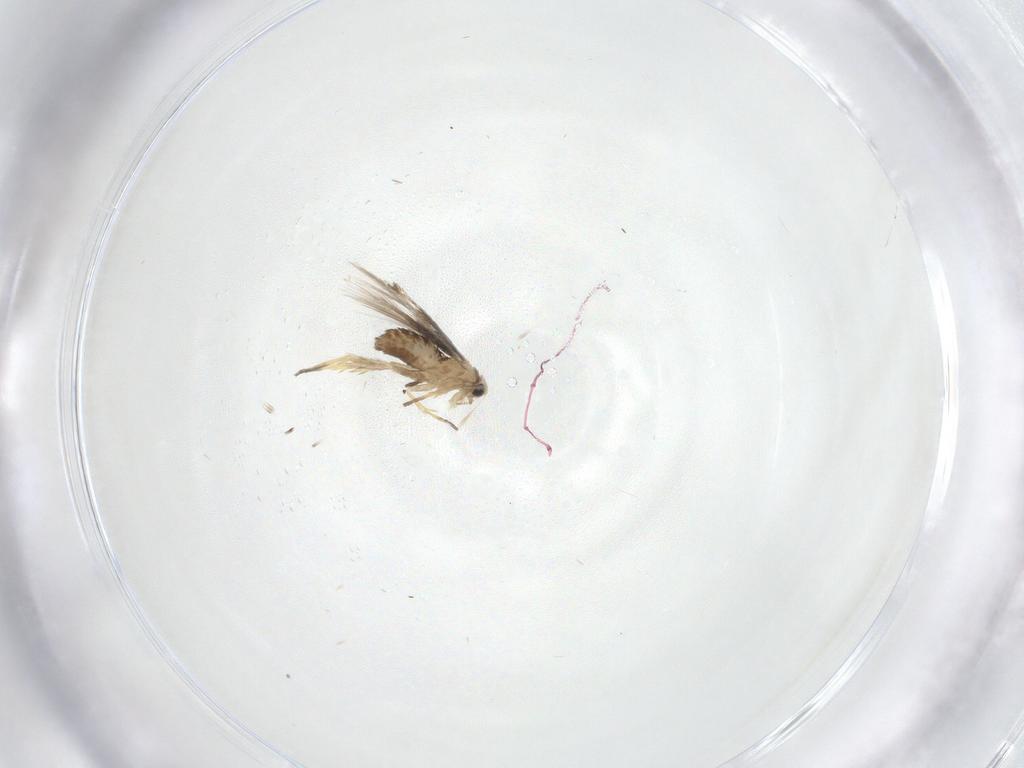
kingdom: Animalia
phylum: Arthropoda
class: Insecta
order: Lepidoptera
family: Nepticulidae
